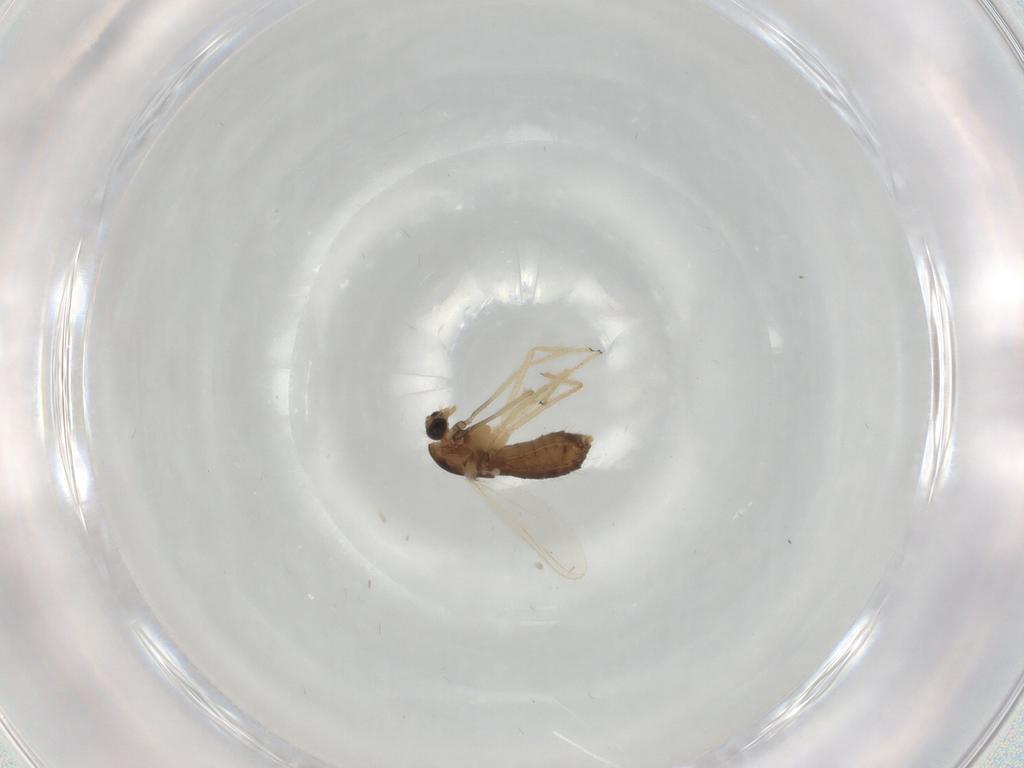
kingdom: Animalia
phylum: Arthropoda
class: Insecta
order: Diptera
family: Chironomidae
